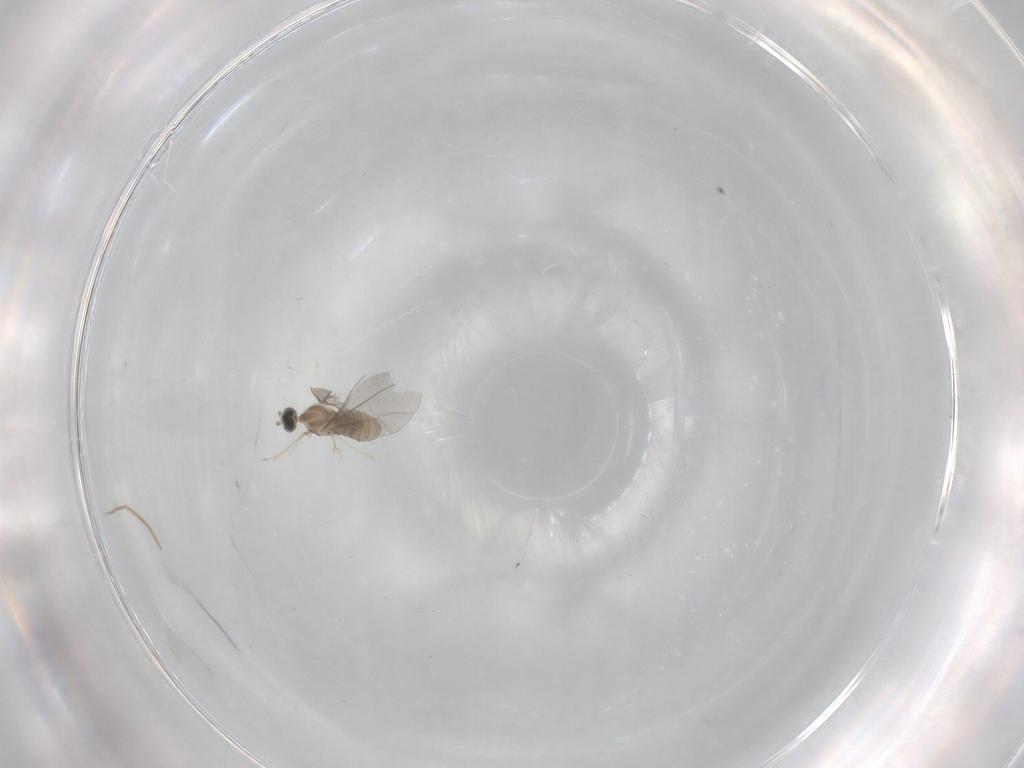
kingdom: Animalia
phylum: Arthropoda
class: Insecta
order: Diptera
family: Cecidomyiidae
